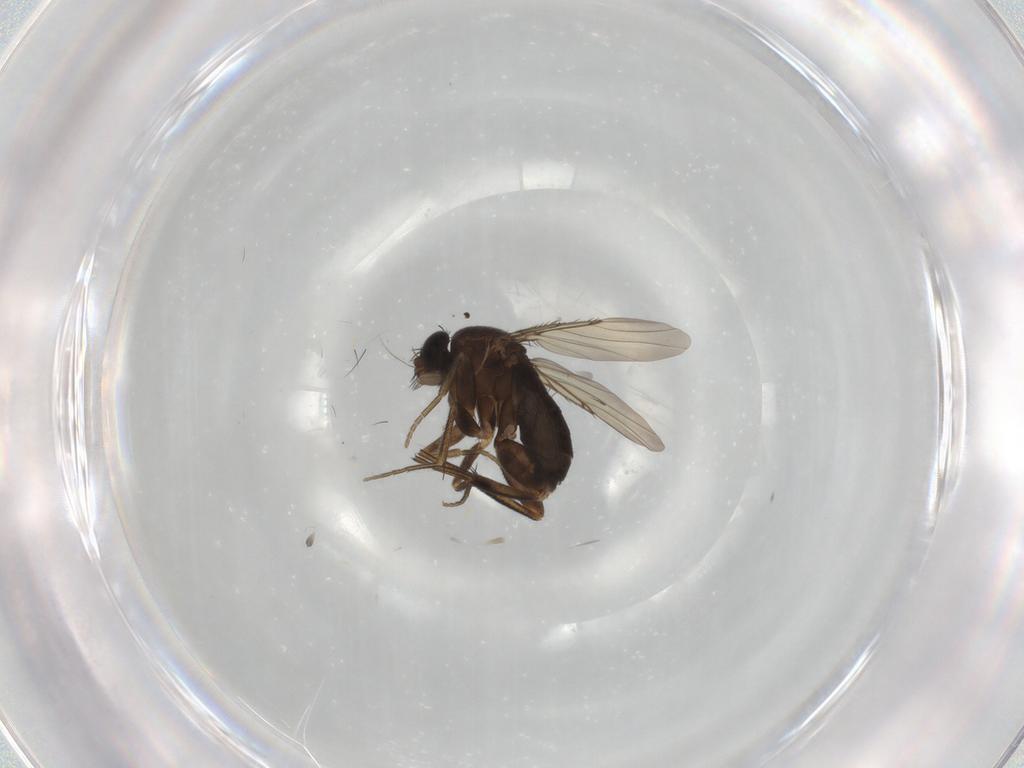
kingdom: Animalia
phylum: Arthropoda
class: Insecta
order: Diptera
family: Phoridae
